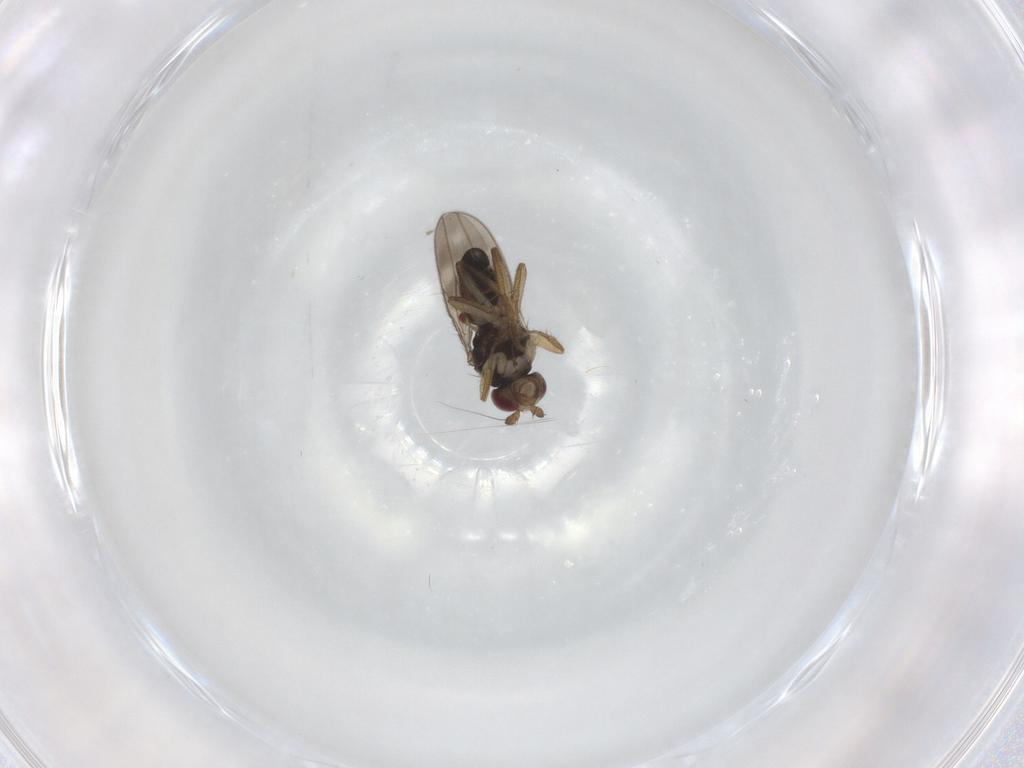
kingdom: Animalia
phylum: Arthropoda
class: Insecta
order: Diptera
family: Sphaeroceridae
